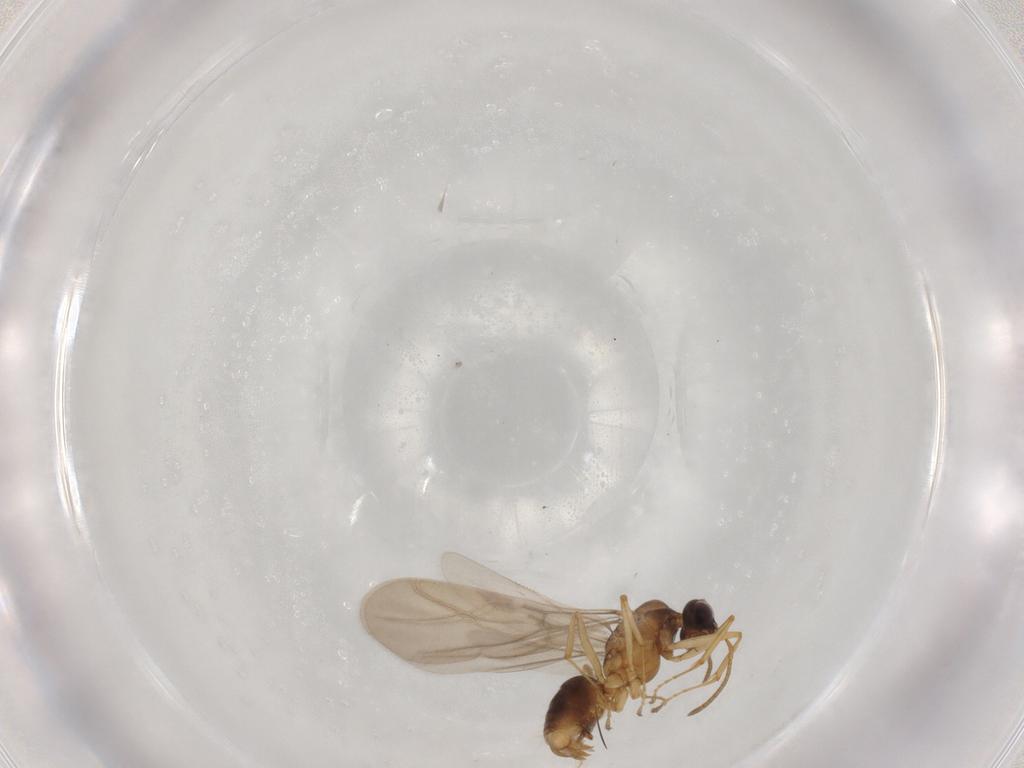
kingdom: Animalia
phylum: Arthropoda
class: Insecta
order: Hymenoptera
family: Formicidae
